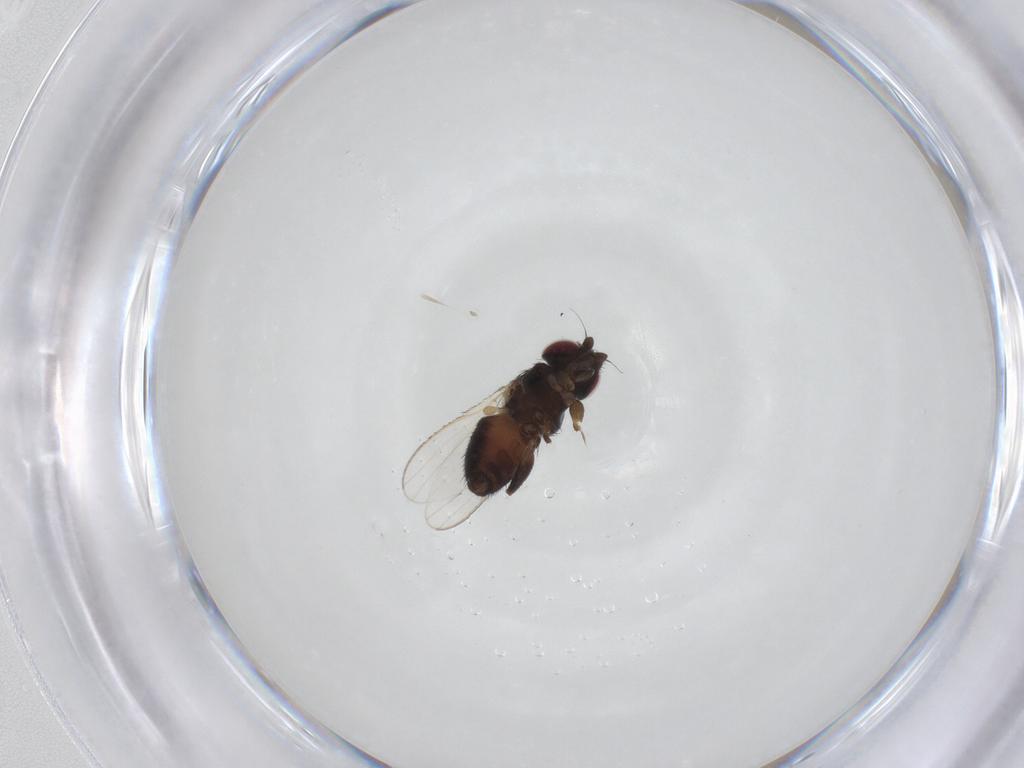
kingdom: Animalia
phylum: Arthropoda
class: Insecta
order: Diptera
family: Milichiidae
